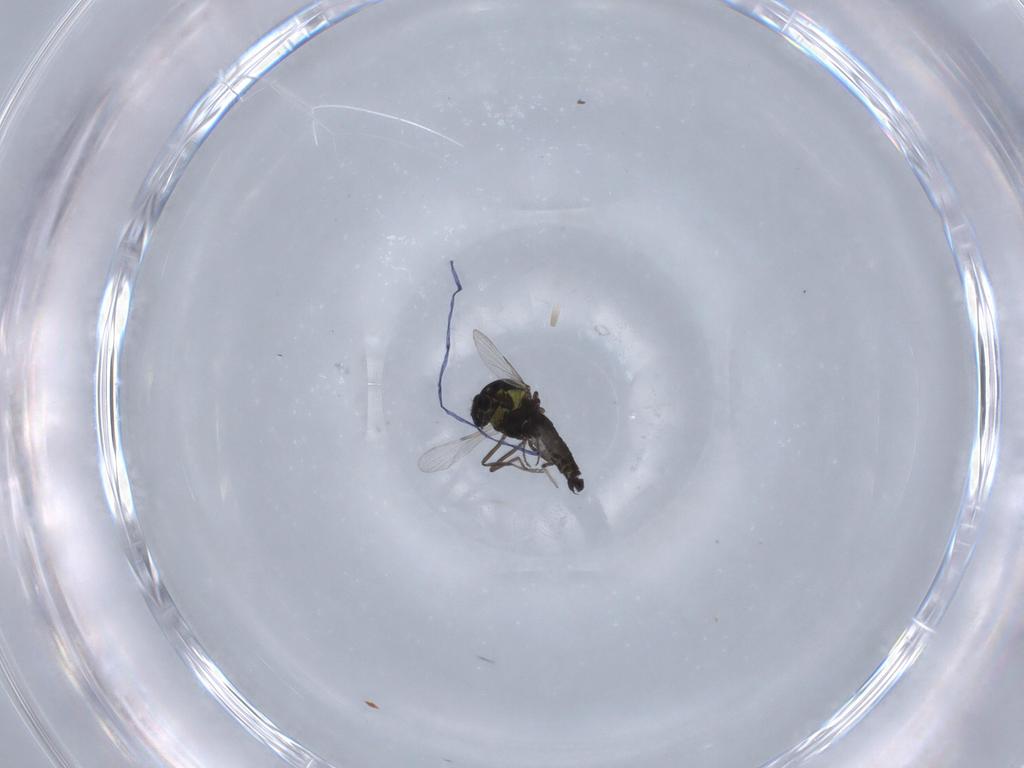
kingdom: Animalia
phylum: Arthropoda
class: Insecta
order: Diptera
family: Ceratopogonidae
